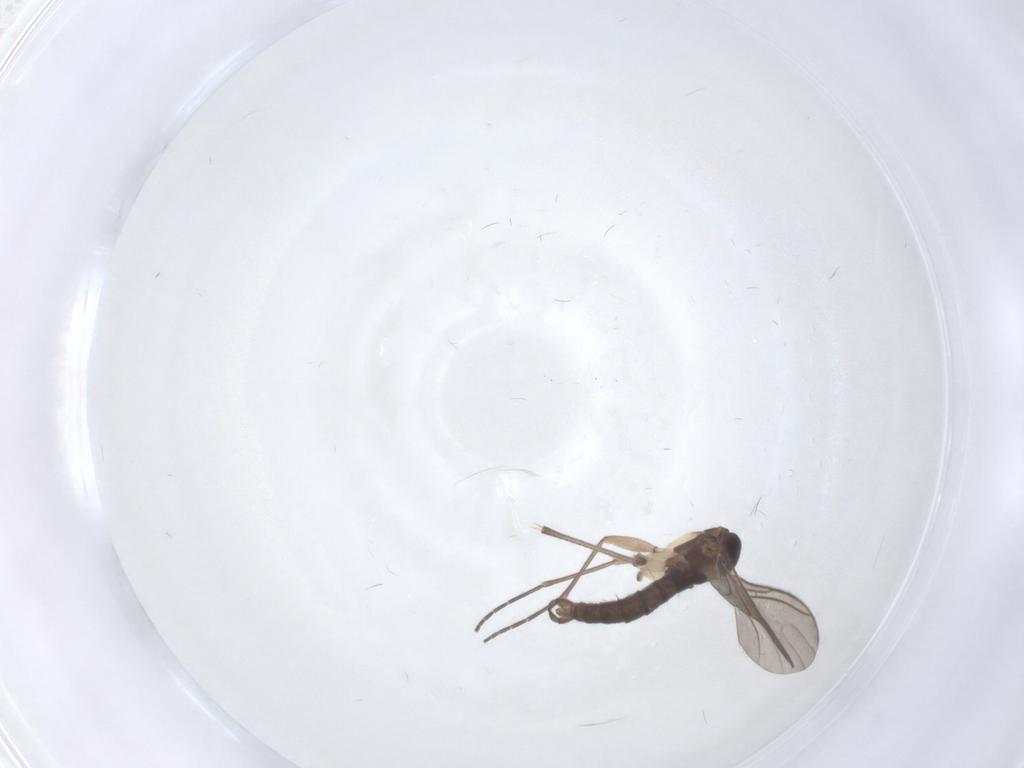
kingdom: Animalia
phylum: Arthropoda
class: Insecta
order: Diptera
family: Sciaridae
